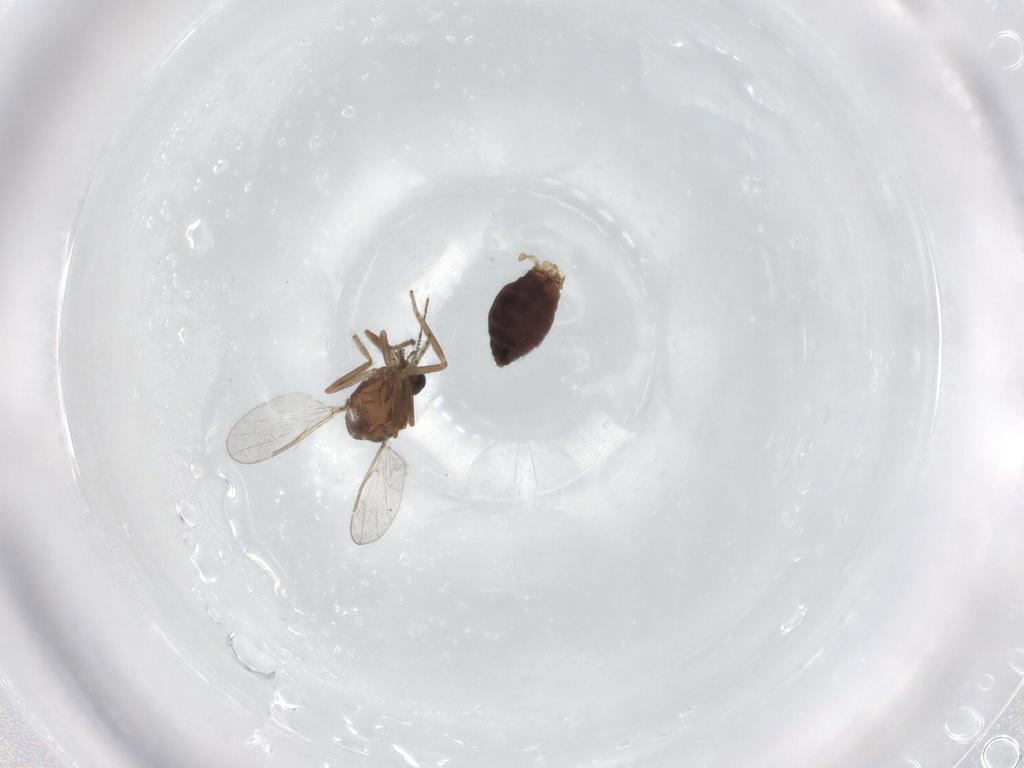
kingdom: Animalia
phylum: Arthropoda
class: Insecta
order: Diptera
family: Ceratopogonidae
